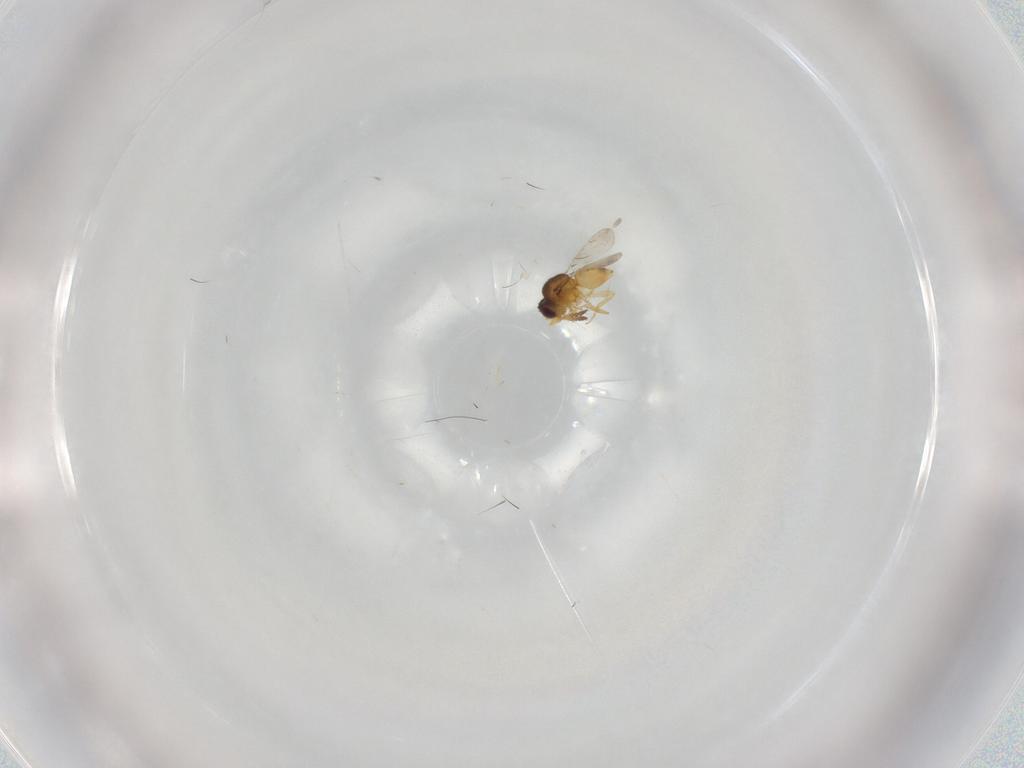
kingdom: Animalia
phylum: Arthropoda
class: Insecta
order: Hymenoptera
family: Ceraphronidae
